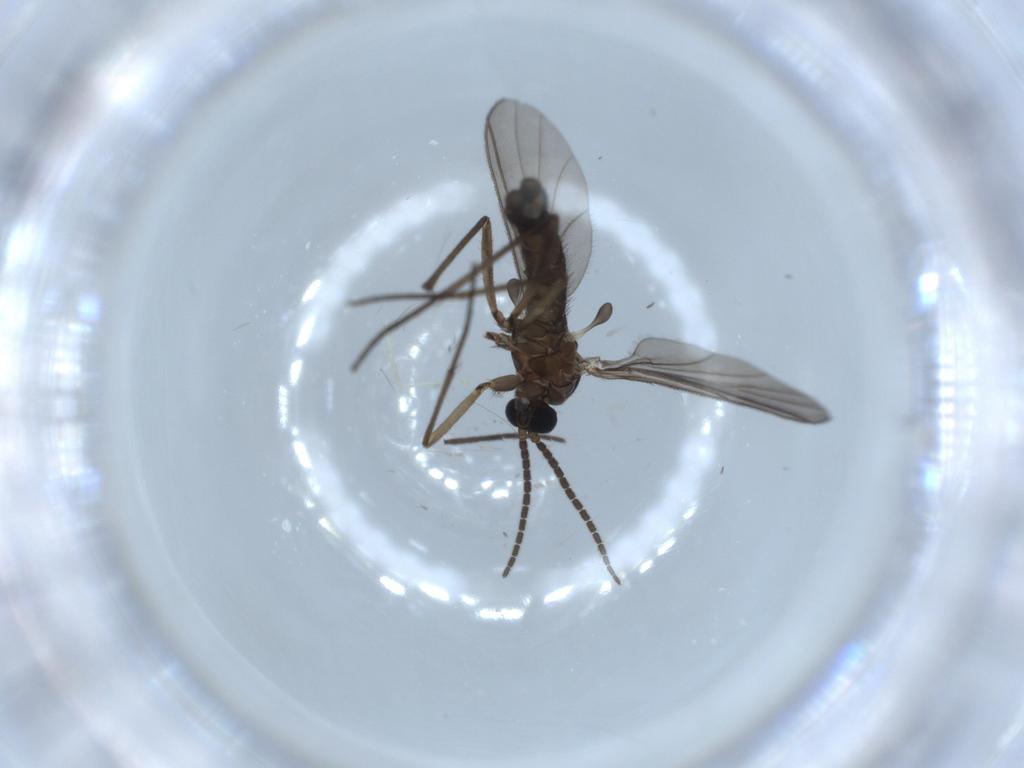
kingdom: Animalia
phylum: Arthropoda
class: Insecta
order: Diptera
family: Sciaridae
